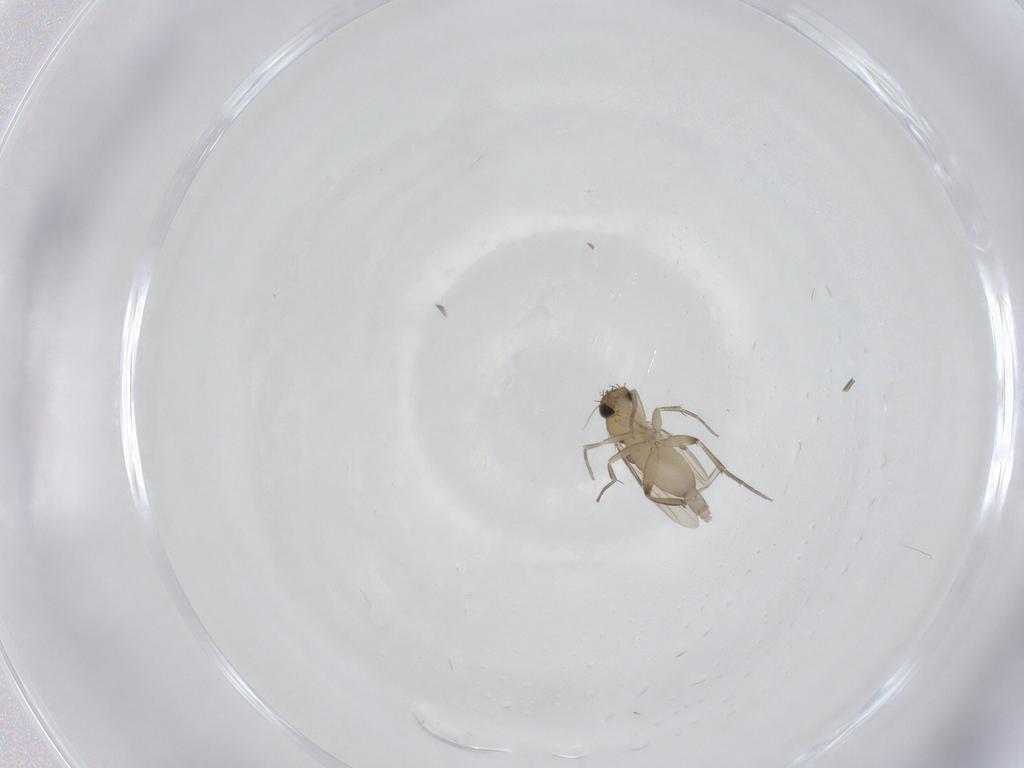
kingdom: Animalia
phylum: Arthropoda
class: Insecta
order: Diptera
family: Phoridae
